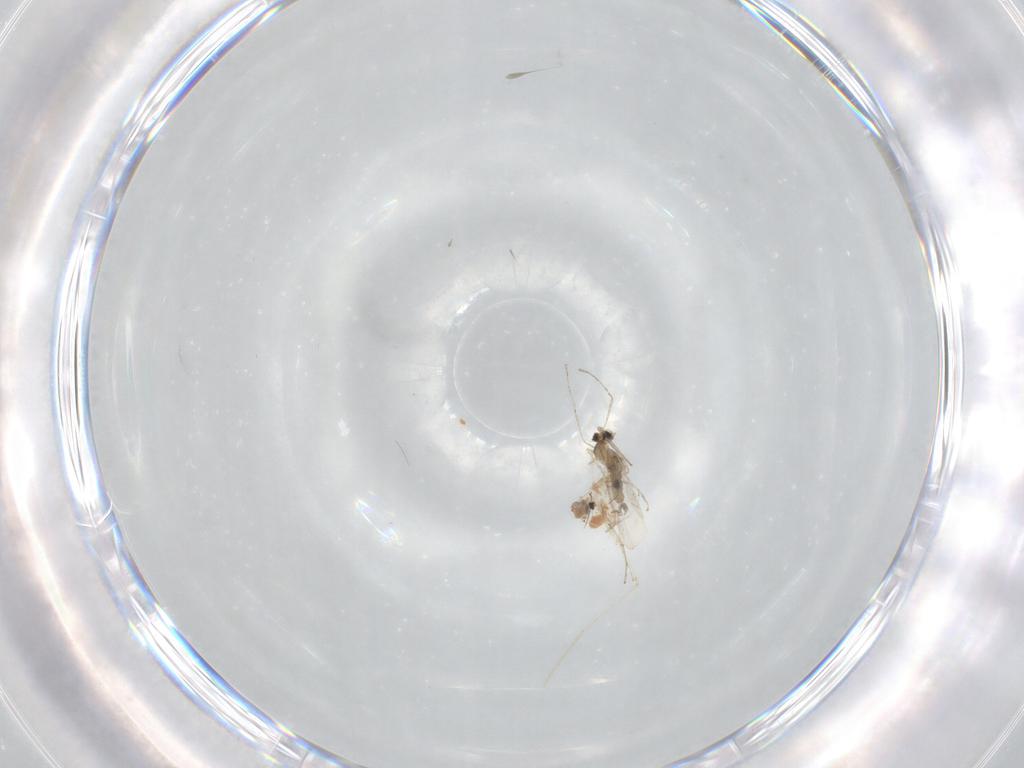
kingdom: Animalia
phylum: Arthropoda
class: Insecta
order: Diptera
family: Cecidomyiidae
